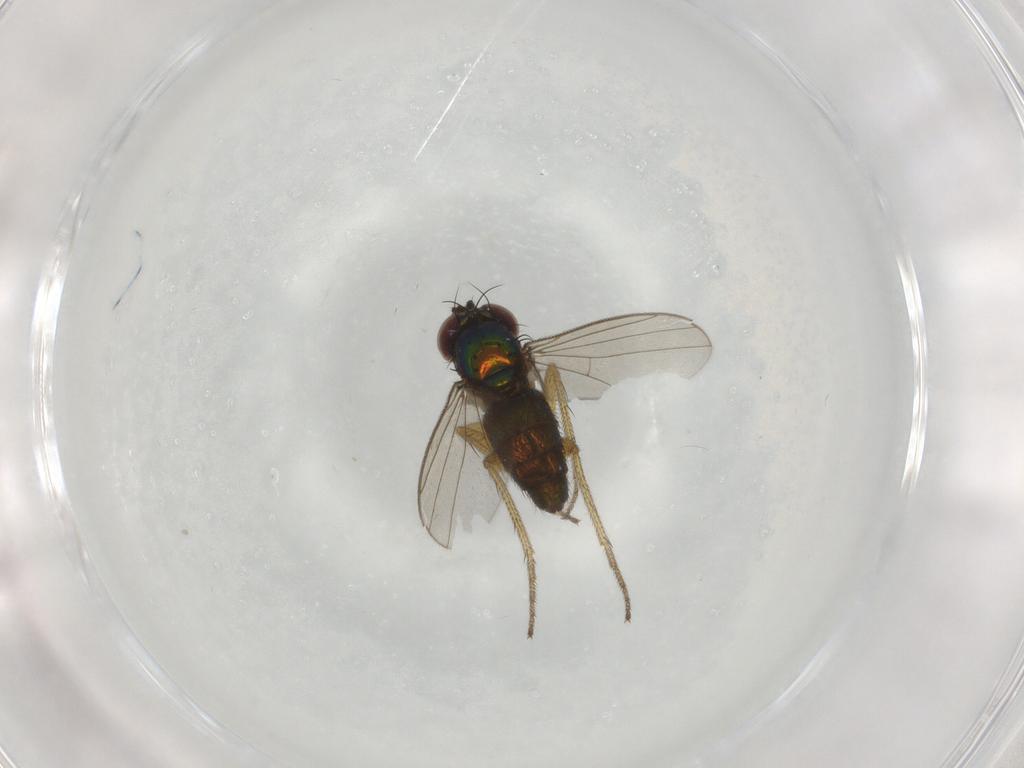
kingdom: Animalia
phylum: Arthropoda
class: Insecta
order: Diptera
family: Dolichopodidae
